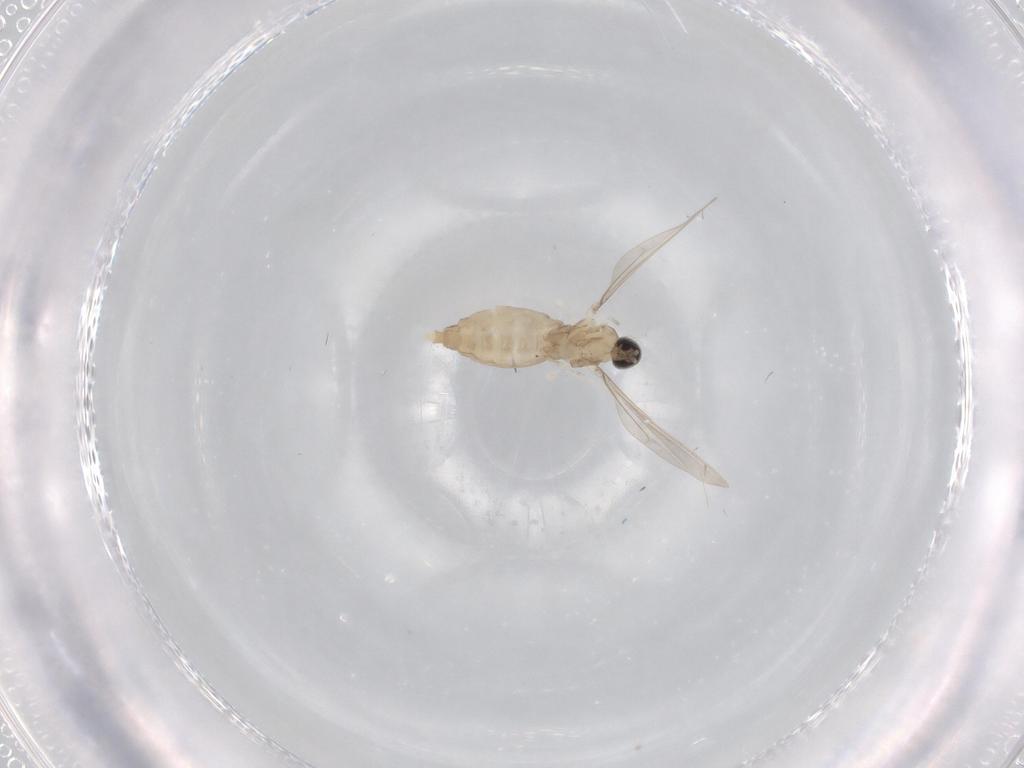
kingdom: Animalia
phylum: Arthropoda
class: Insecta
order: Diptera
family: Cecidomyiidae
